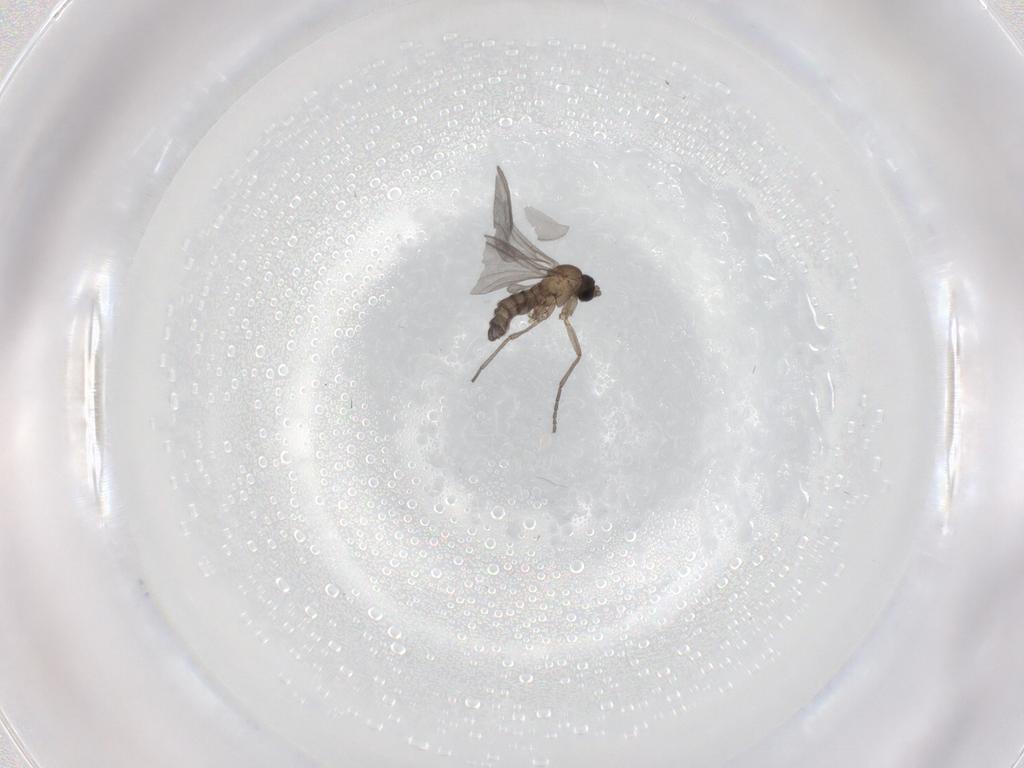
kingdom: Animalia
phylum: Arthropoda
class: Insecta
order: Diptera
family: Sciaridae
